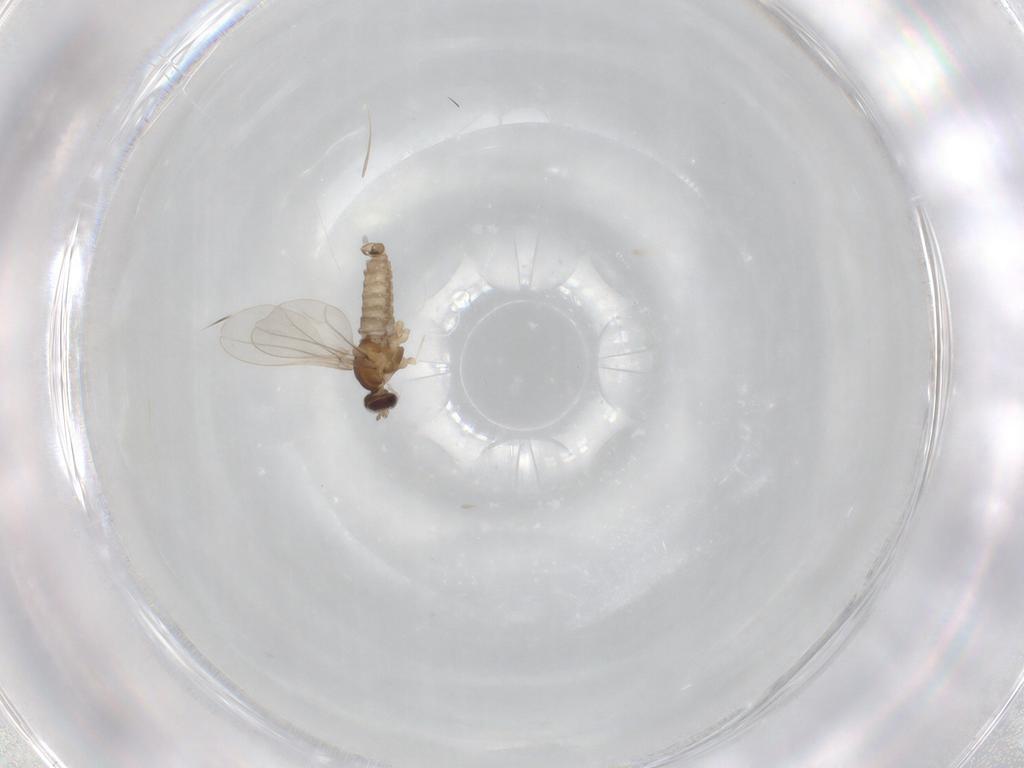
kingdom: Animalia
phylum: Arthropoda
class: Insecta
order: Diptera
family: Cecidomyiidae
